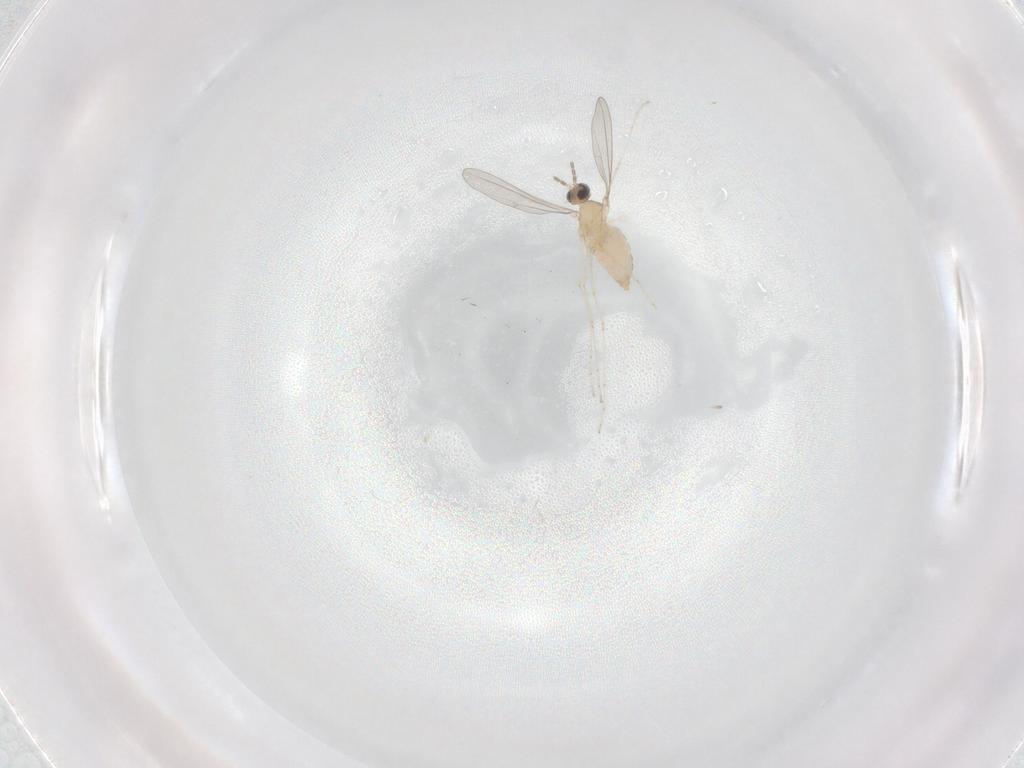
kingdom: Animalia
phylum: Arthropoda
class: Insecta
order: Diptera
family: Cecidomyiidae
